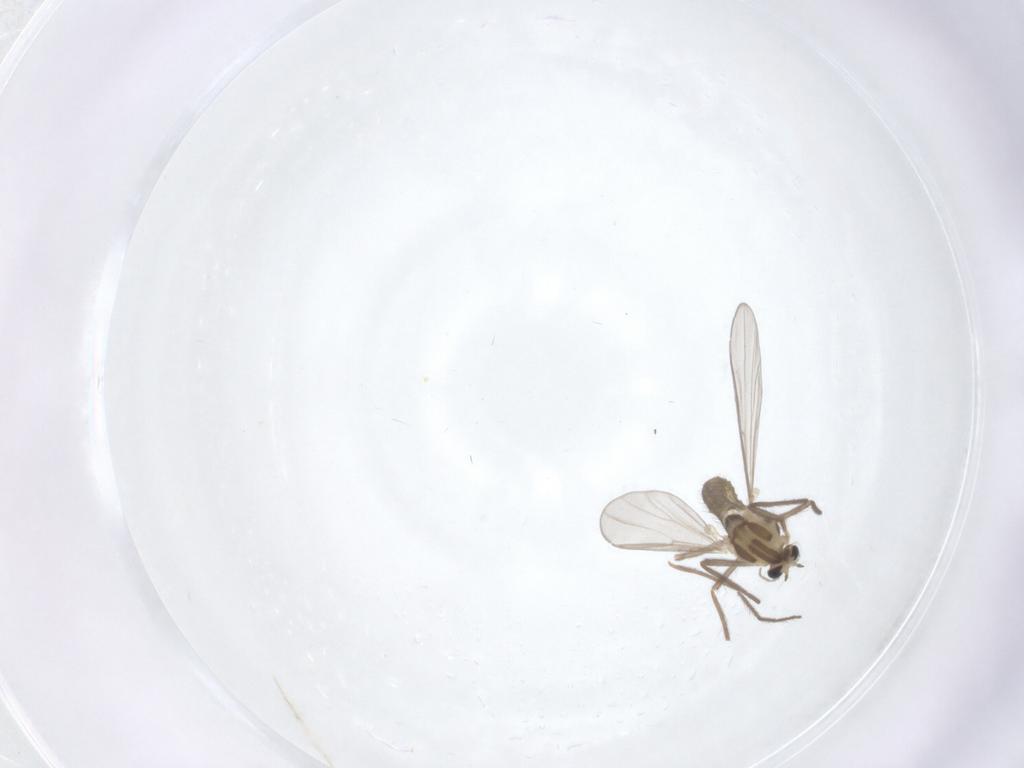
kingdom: Animalia
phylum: Arthropoda
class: Insecta
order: Diptera
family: Chironomidae
